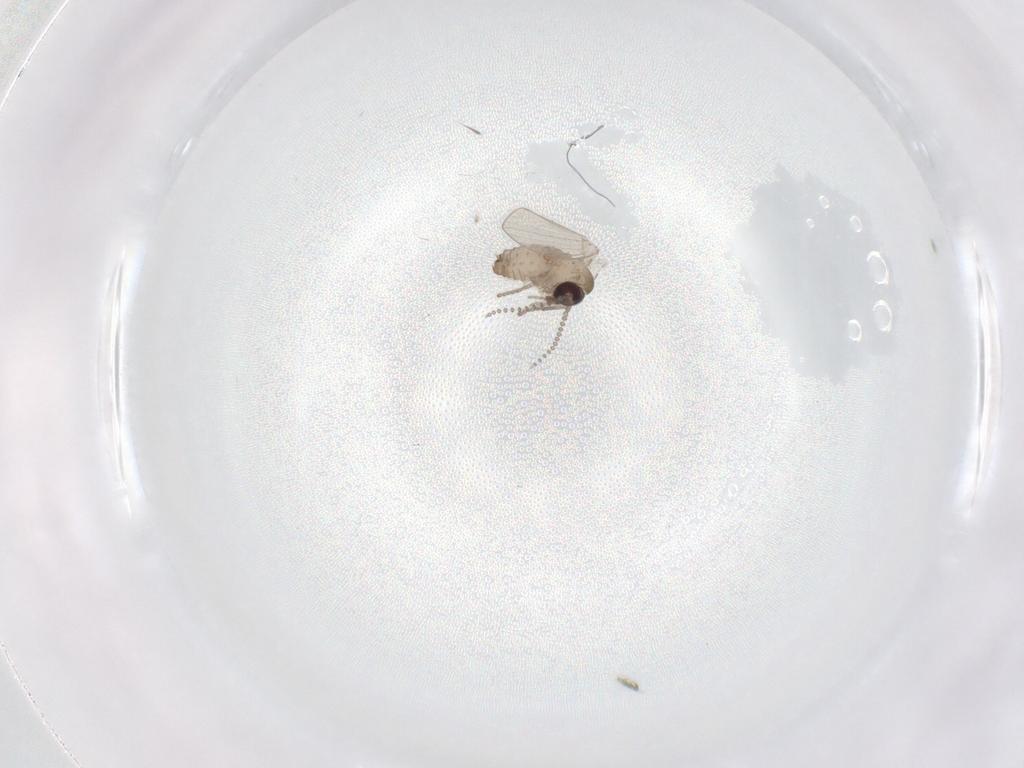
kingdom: Animalia
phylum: Arthropoda
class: Insecta
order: Diptera
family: Psychodidae
